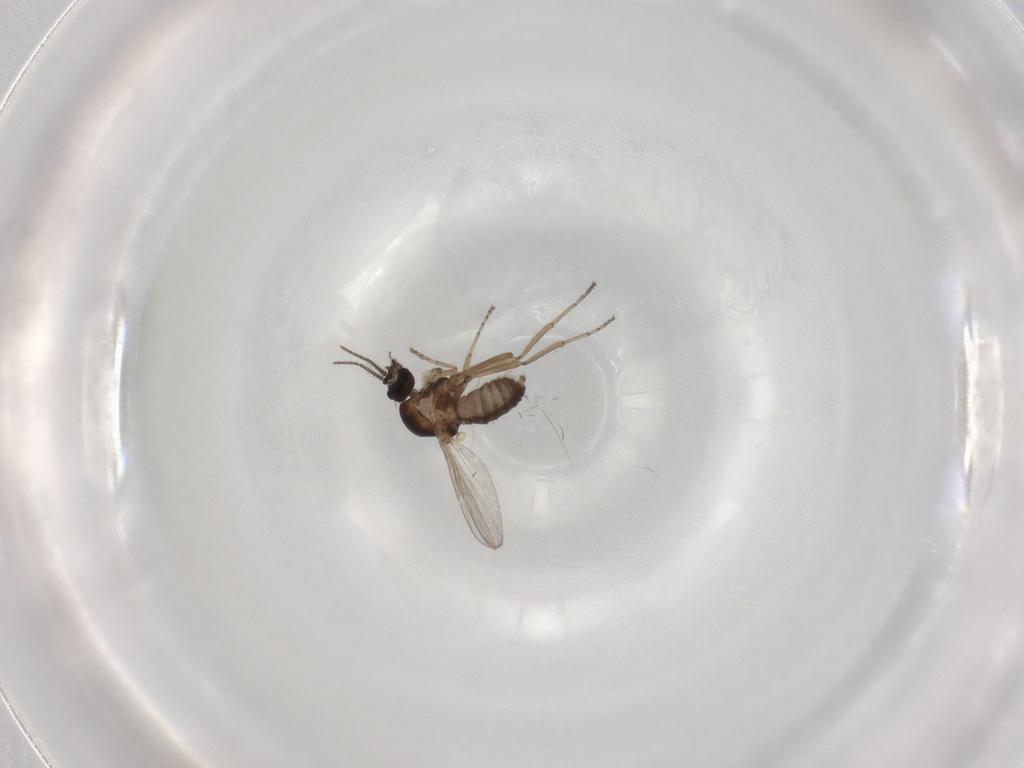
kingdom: Animalia
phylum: Arthropoda
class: Insecta
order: Diptera
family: Ceratopogonidae
